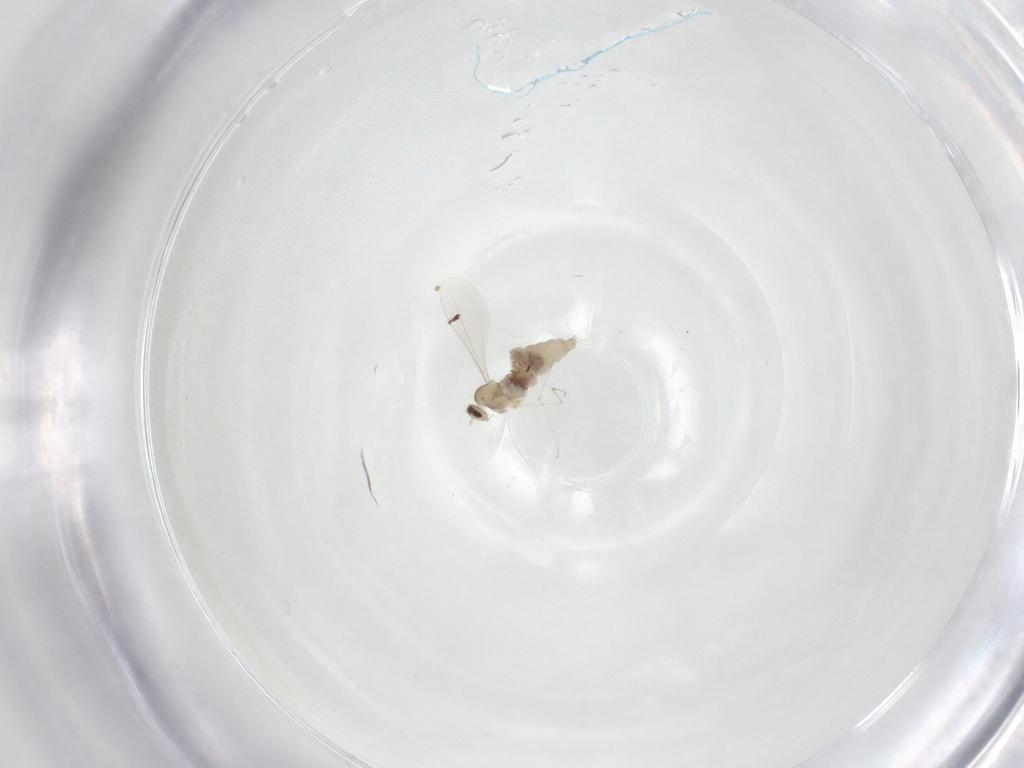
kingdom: Animalia
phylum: Arthropoda
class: Insecta
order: Diptera
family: Cecidomyiidae
